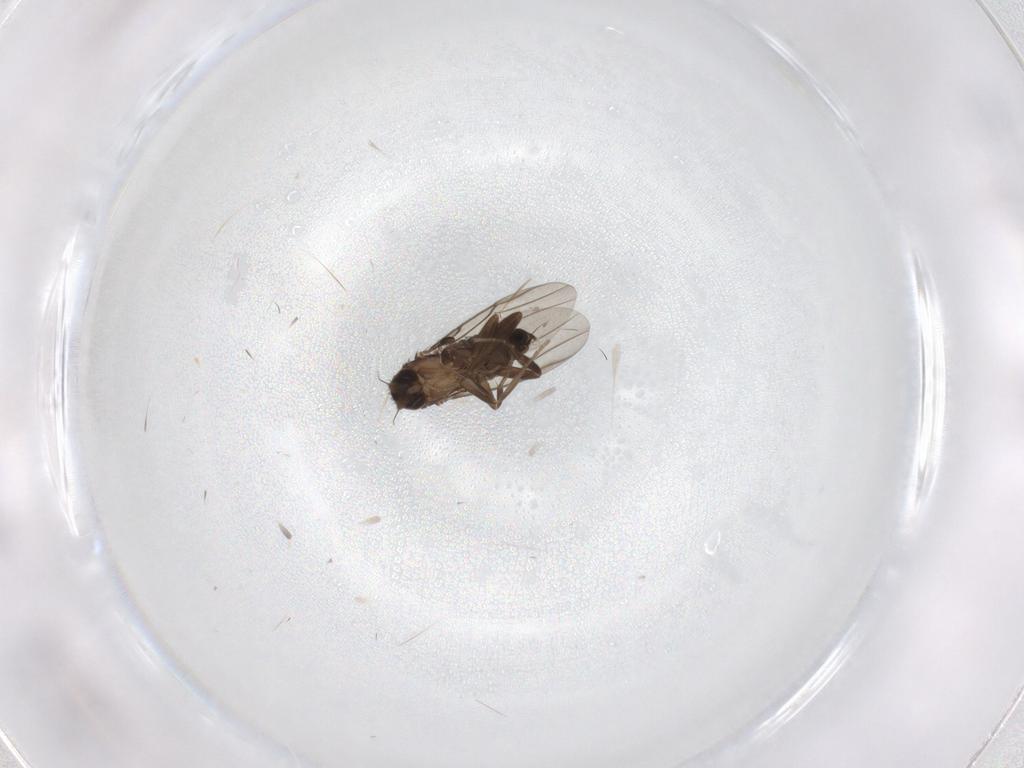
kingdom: Animalia
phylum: Arthropoda
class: Insecta
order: Diptera
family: Phoridae
